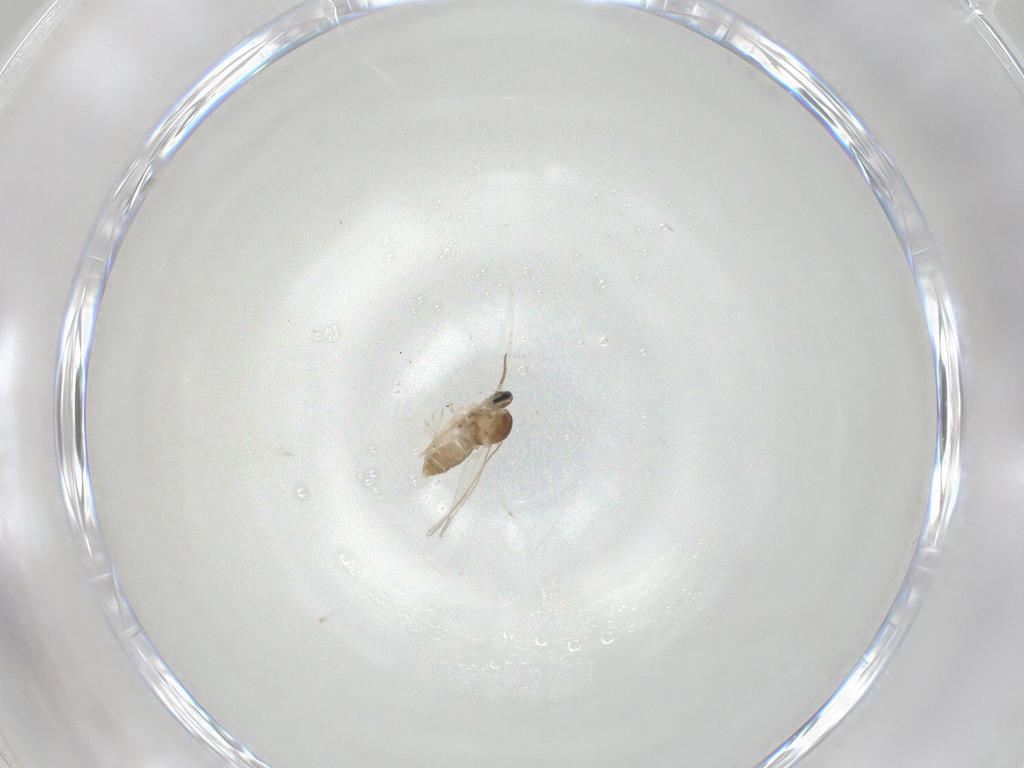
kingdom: Animalia
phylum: Arthropoda
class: Insecta
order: Diptera
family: Cecidomyiidae
